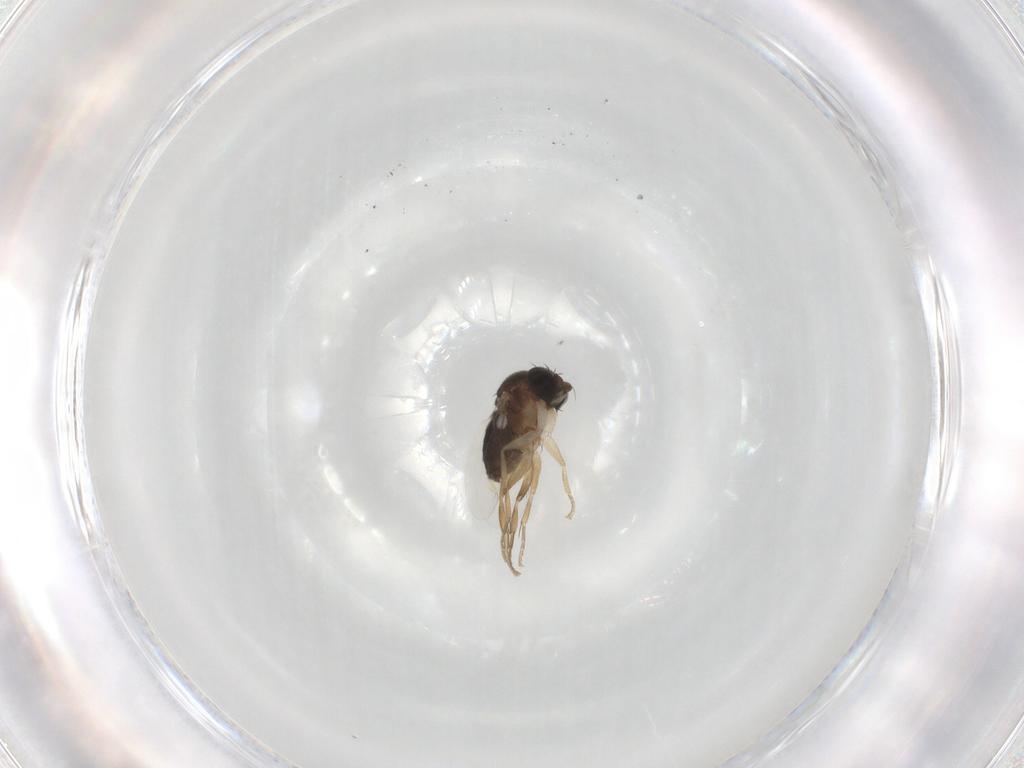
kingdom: Animalia
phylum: Arthropoda
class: Insecta
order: Diptera
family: Phoridae
